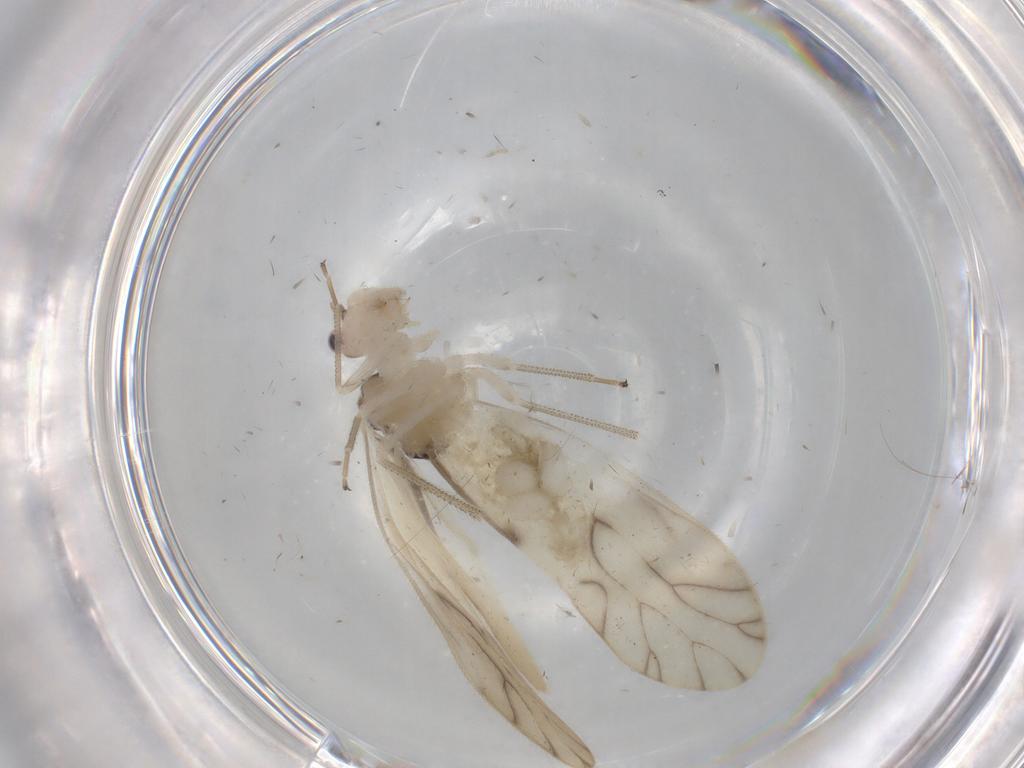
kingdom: Animalia
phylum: Arthropoda
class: Insecta
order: Psocodea
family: Caeciliusidae
